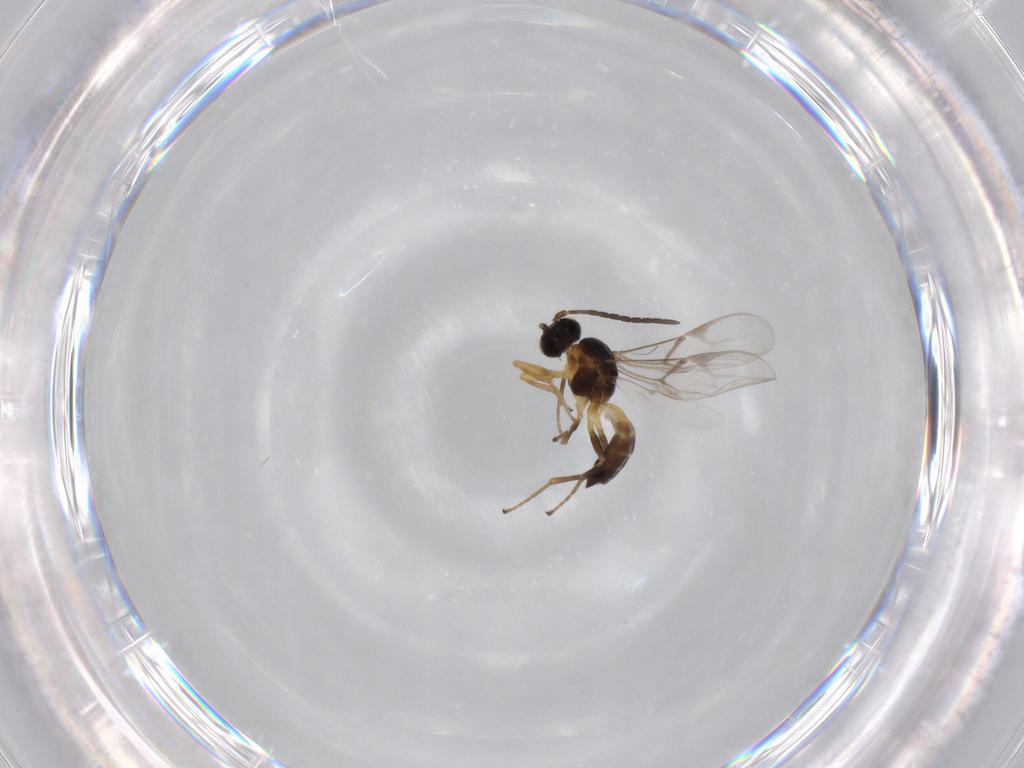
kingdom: Animalia
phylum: Arthropoda
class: Insecta
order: Hymenoptera
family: Braconidae
